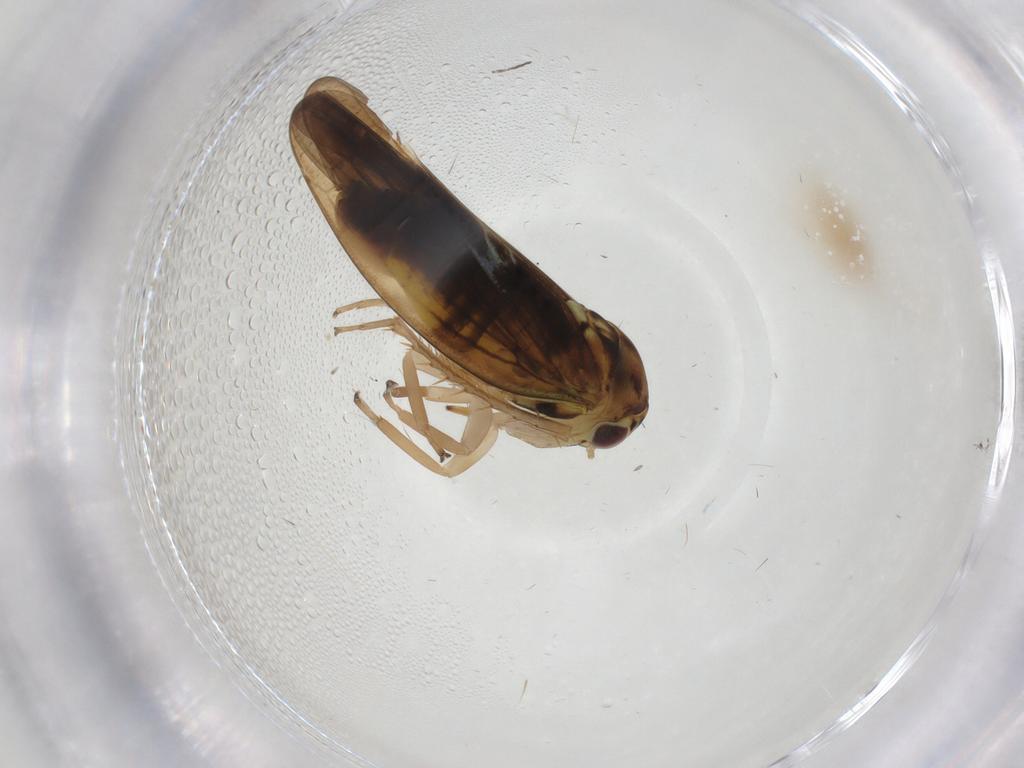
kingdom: Animalia
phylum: Arthropoda
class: Insecta
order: Hemiptera
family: Cicadellidae
